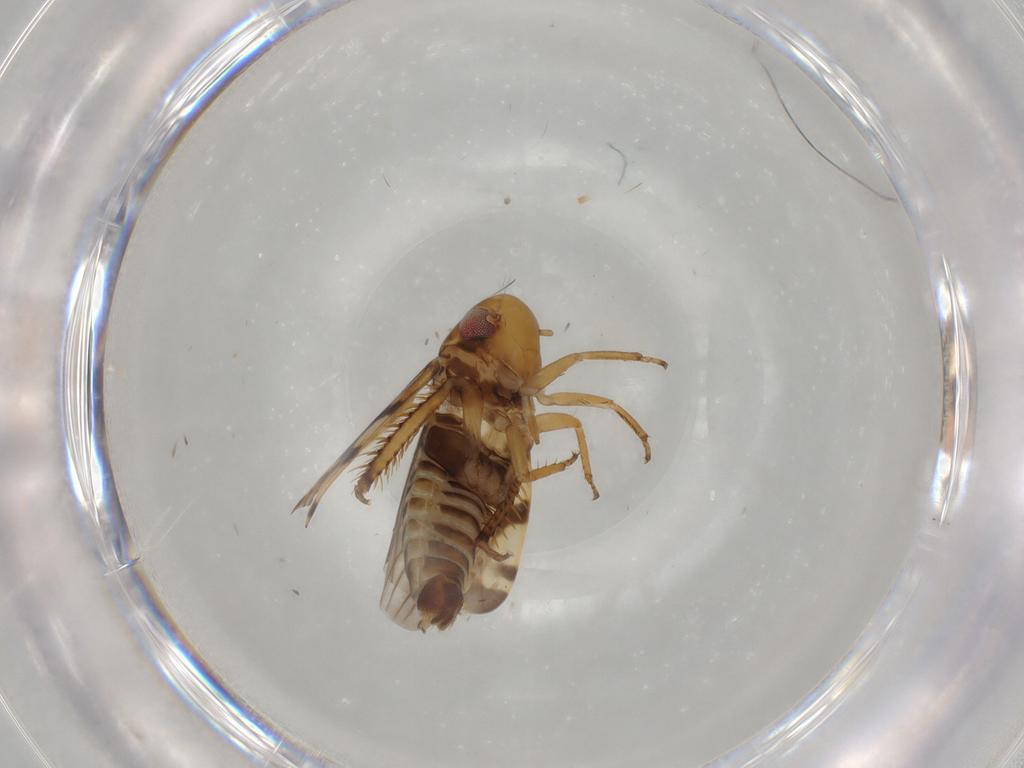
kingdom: Animalia
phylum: Arthropoda
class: Insecta
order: Hemiptera
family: Cicadellidae
